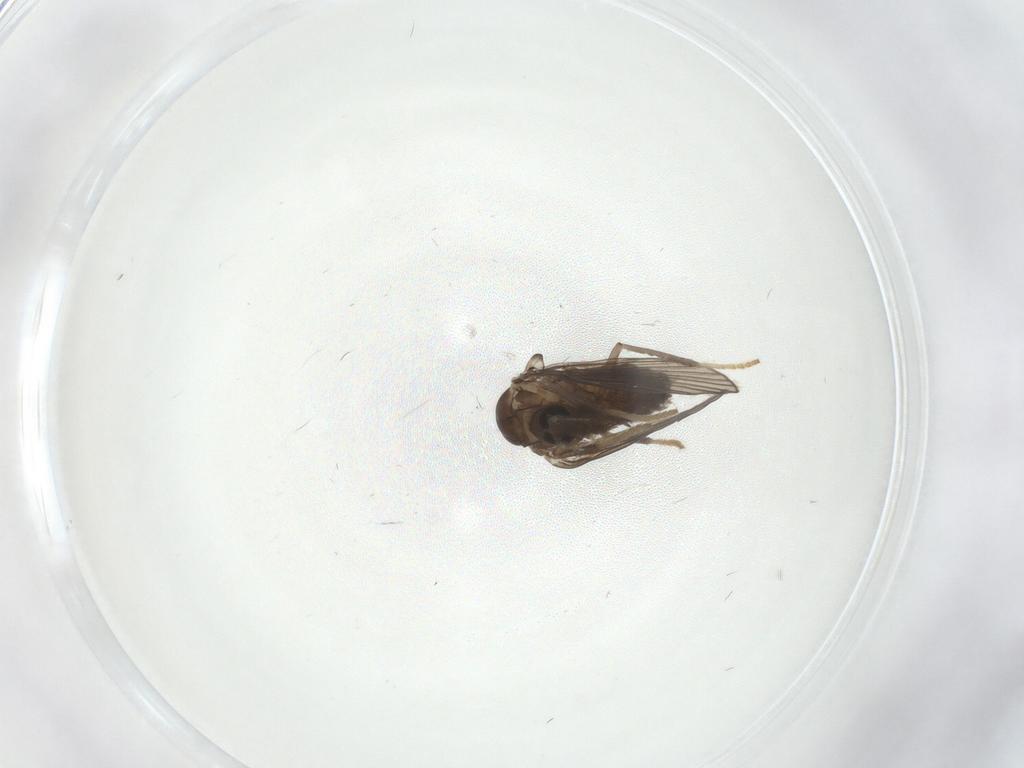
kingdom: Animalia
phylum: Arthropoda
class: Insecta
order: Diptera
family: Psychodidae
